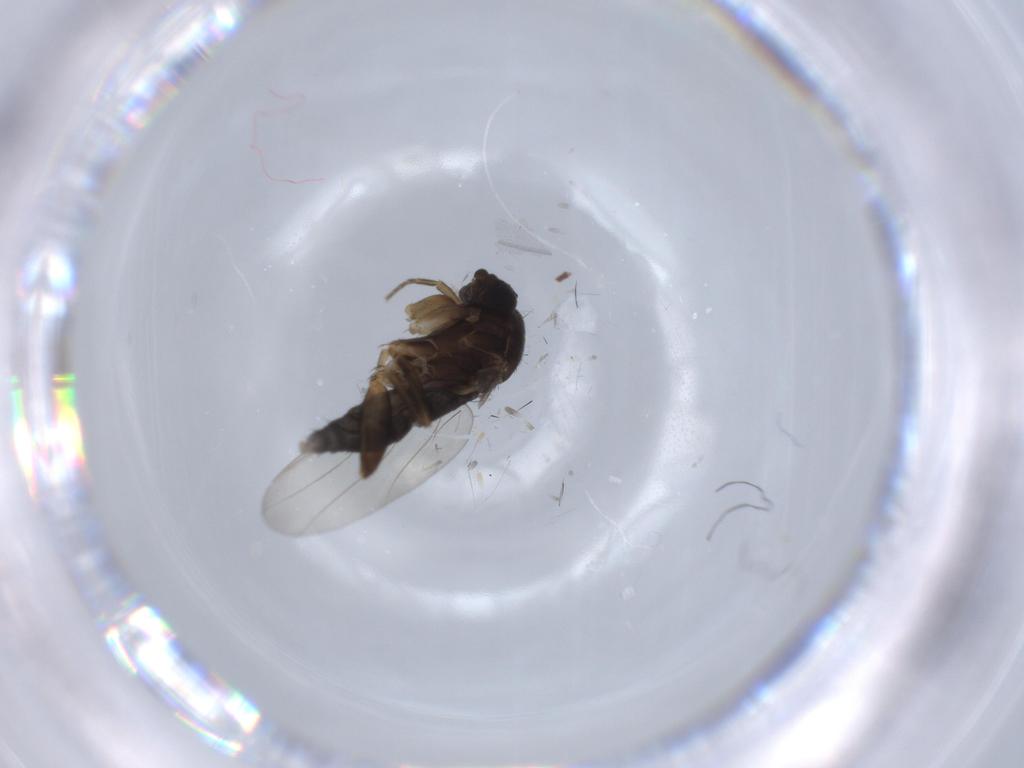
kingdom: Animalia
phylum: Arthropoda
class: Insecta
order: Diptera
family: Phoridae
